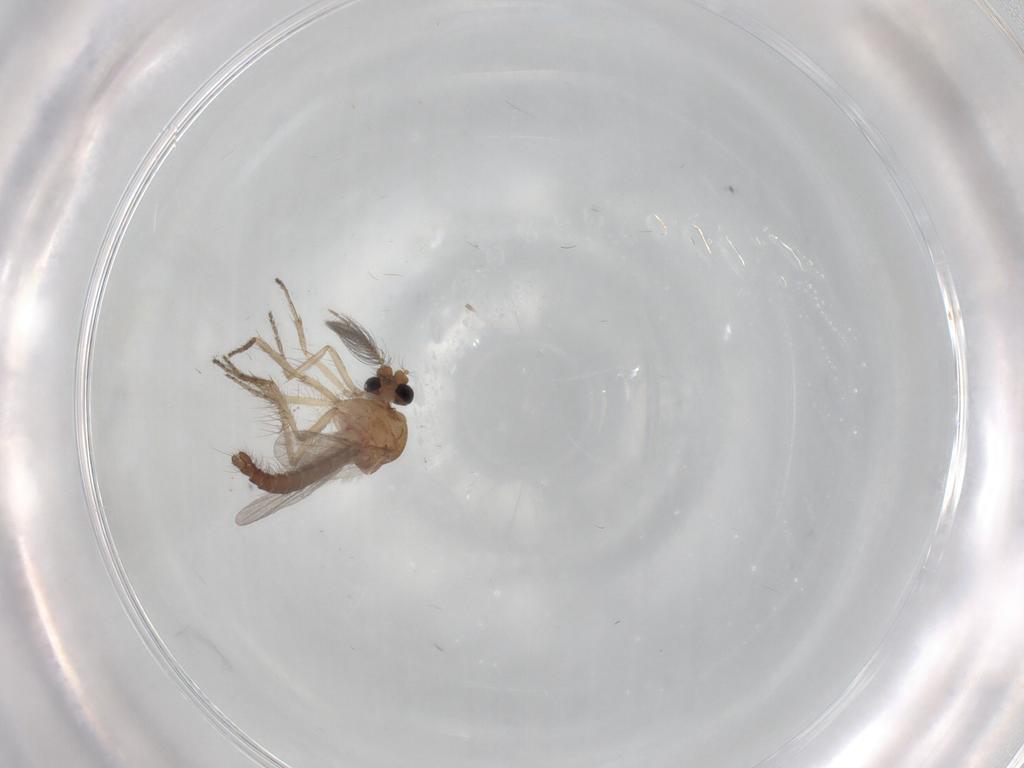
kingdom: Animalia
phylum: Arthropoda
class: Insecta
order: Diptera
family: Ceratopogonidae
